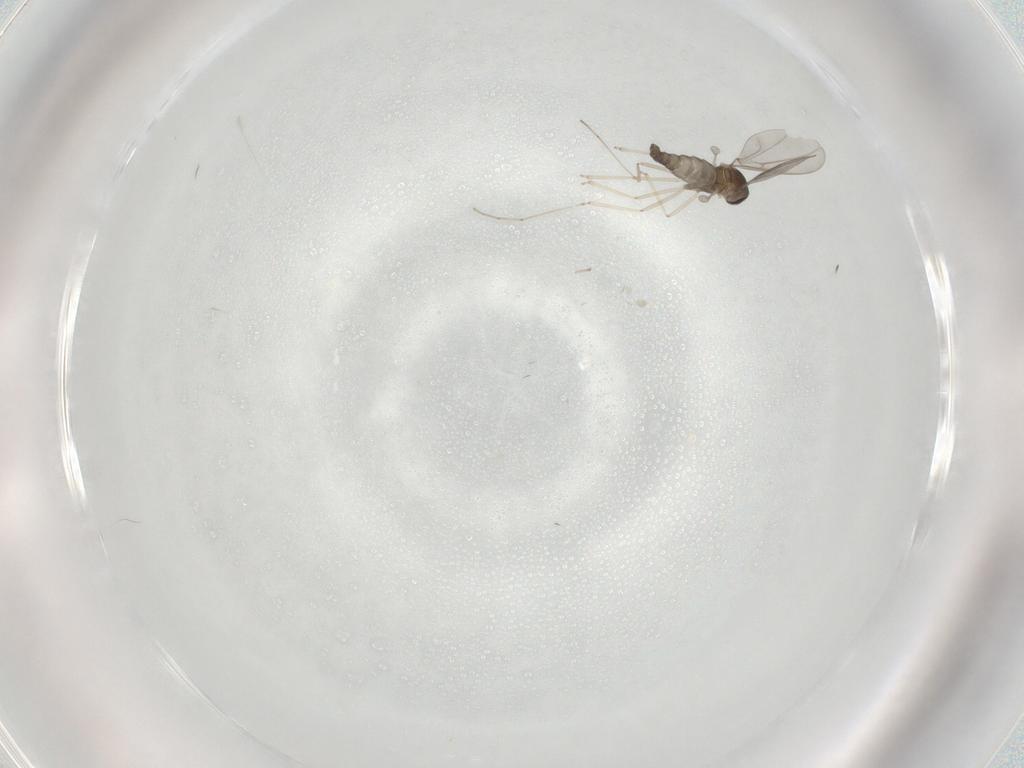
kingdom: Animalia
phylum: Arthropoda
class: Insecta
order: Diptera
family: Cecidomyiidae
